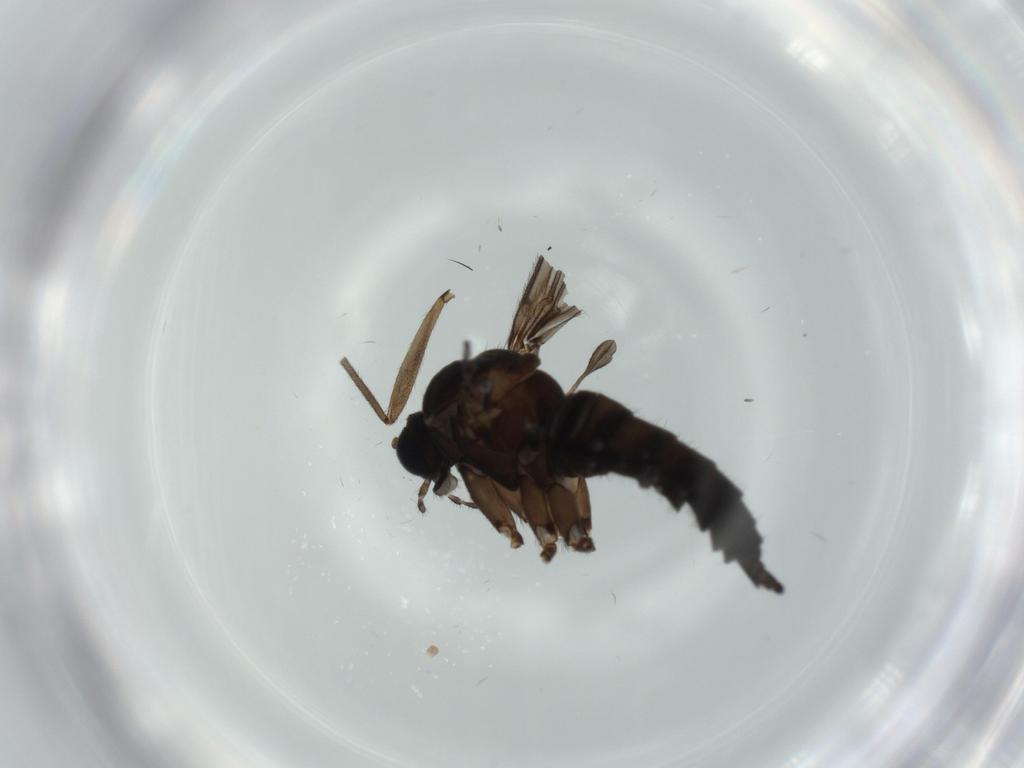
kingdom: Animalia
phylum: Arthropoda
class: Insecta
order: Diptera
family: Sciaridae
